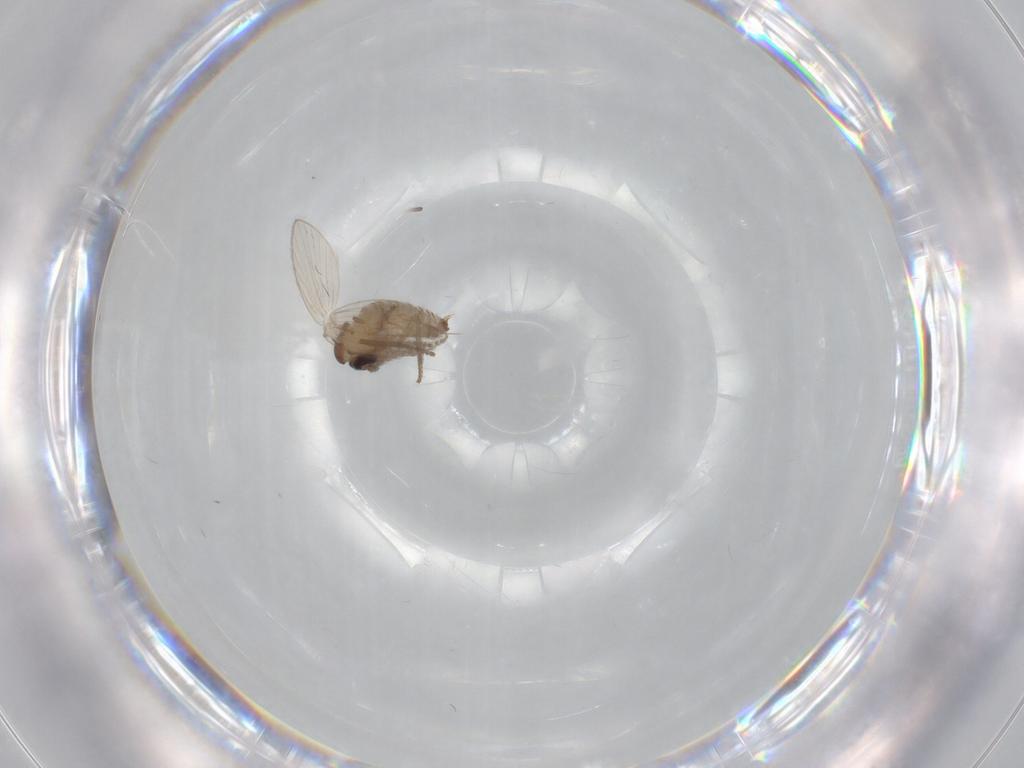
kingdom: Animalia
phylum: Arthropoda
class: Insecta
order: Diptera
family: Psychodidae
